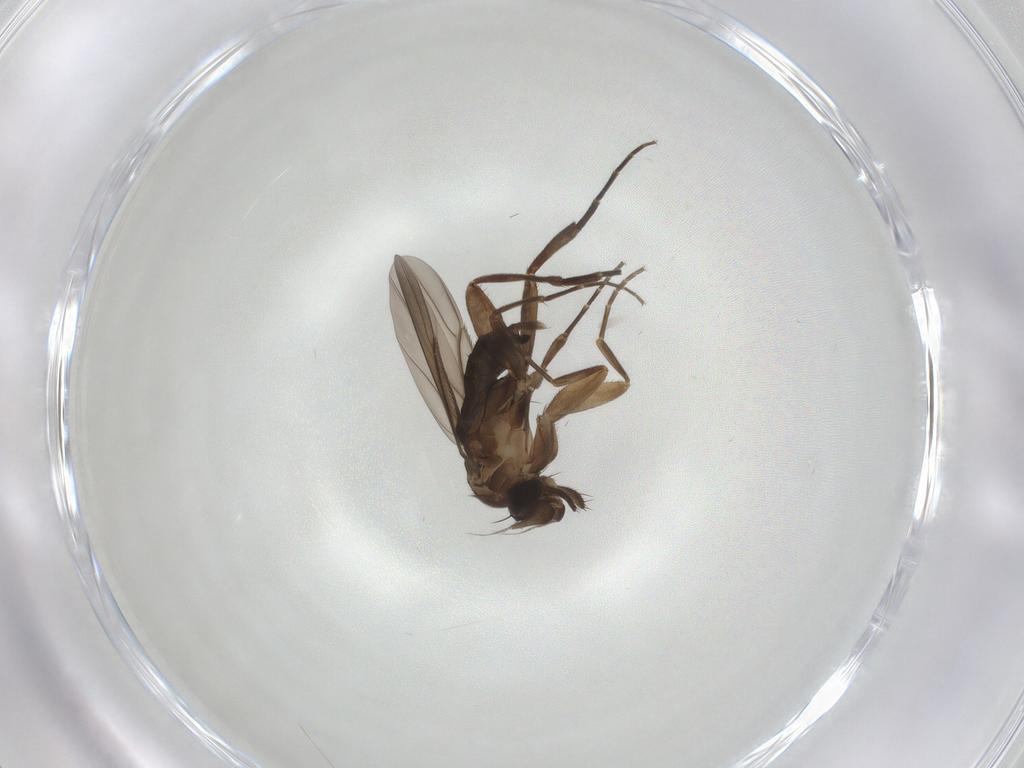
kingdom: Animalia
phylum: Arthropoda
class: Insecta
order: Diptera
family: Phoridae
